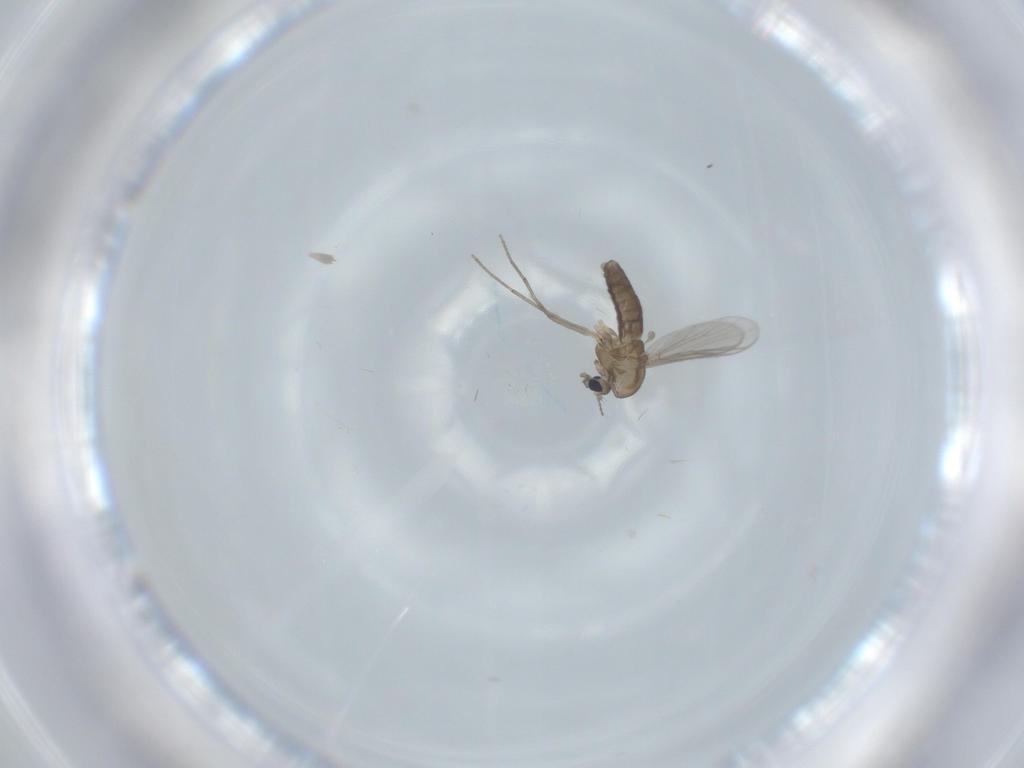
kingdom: Animalia
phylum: Arthropoda
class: Insecta
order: Diptera
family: Chironomidae
